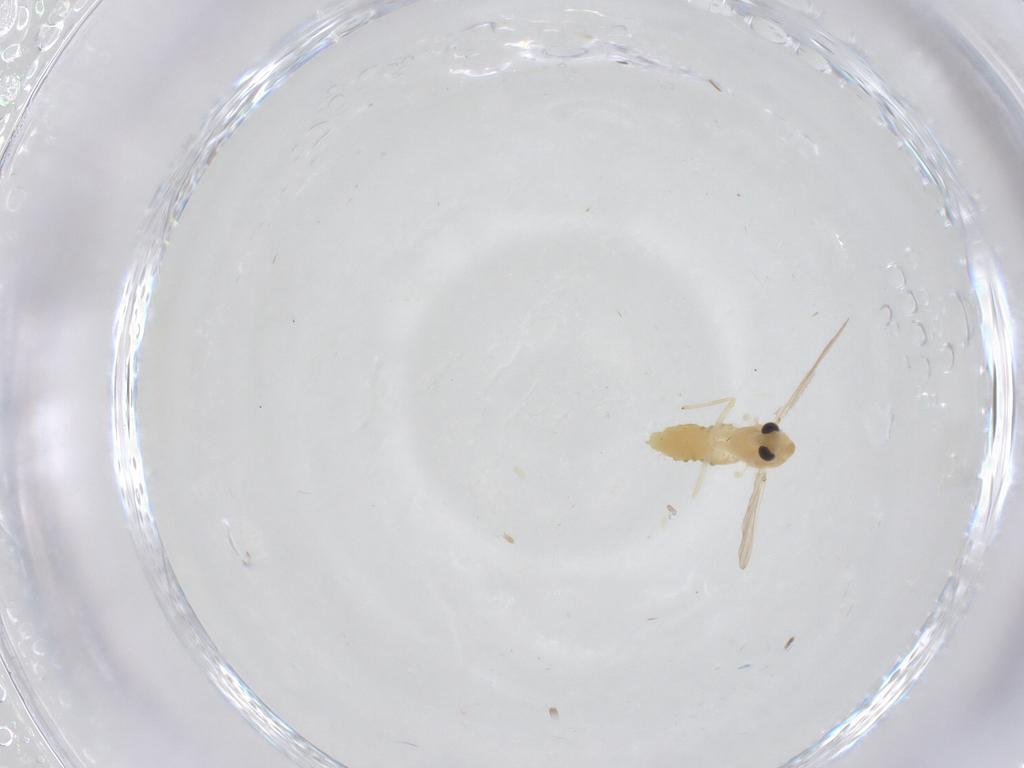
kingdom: Animalia
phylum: Arthropoda
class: Insecta
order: Diptera
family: Chironomidae
